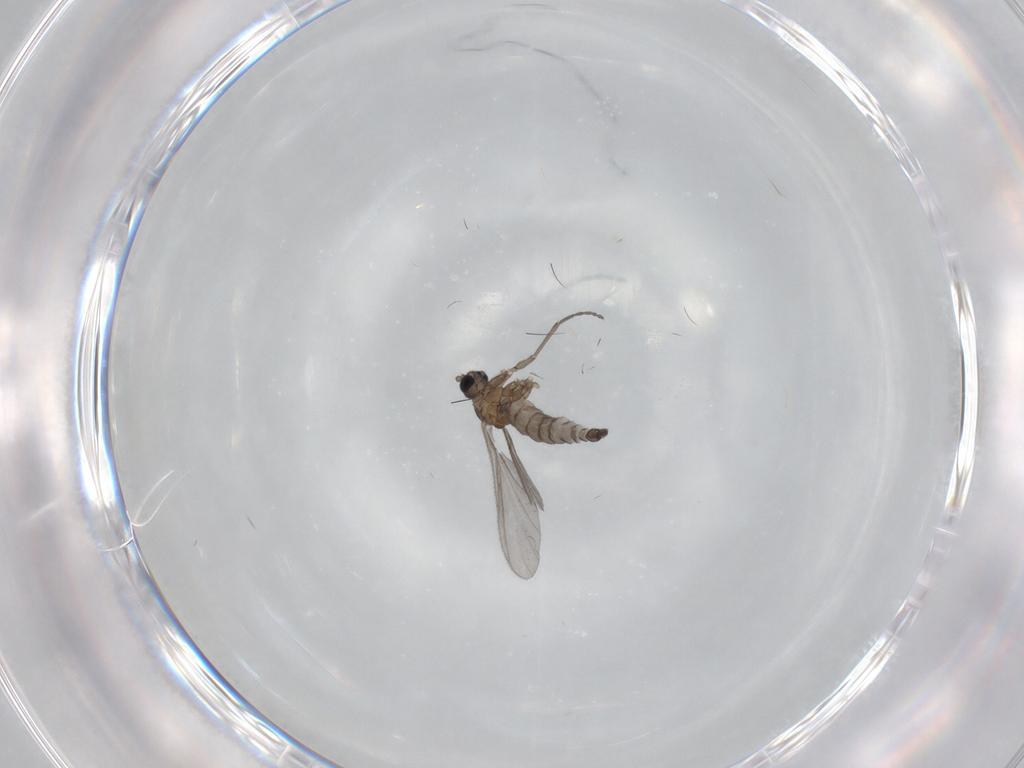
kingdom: Animalia
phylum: Arthropoda
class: Insecta
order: Diptera
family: Sciaridae
